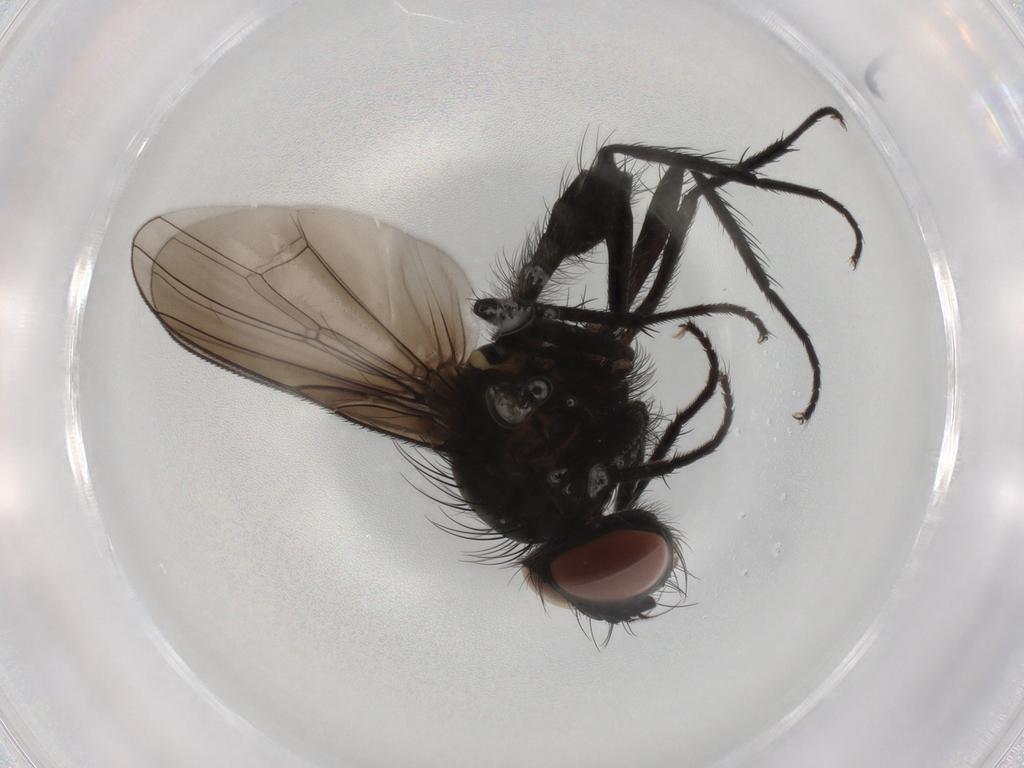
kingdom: Animalia
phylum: Arthropoda
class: Insecta
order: Diptera
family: Anthomyiidae
